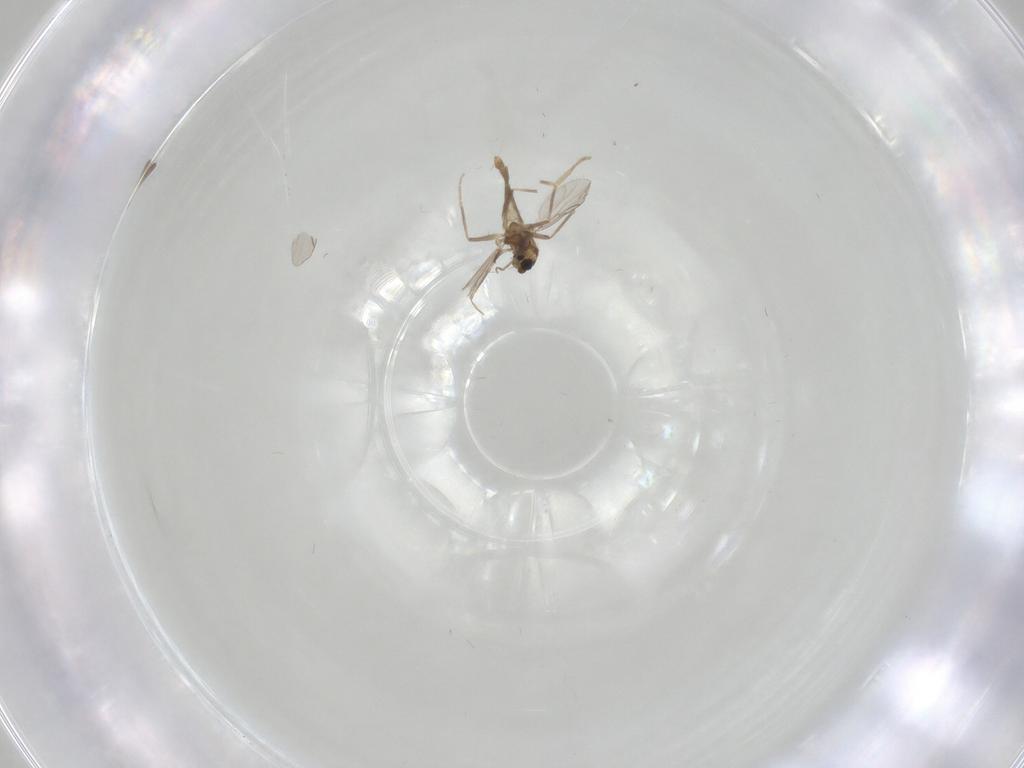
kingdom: Animalia
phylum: Arthropoda
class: Insecta
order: Diptera
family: Chironomidae
